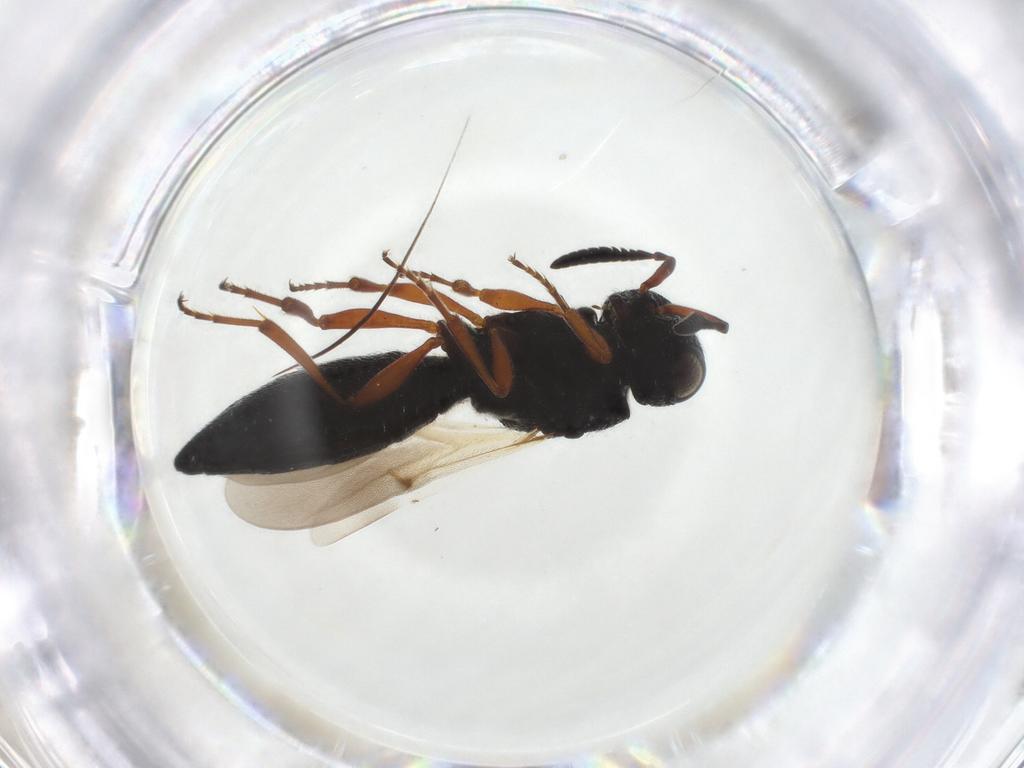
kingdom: Animalia
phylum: Arthropoda
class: Insecta
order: Hymenoptera
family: Scelionidae
